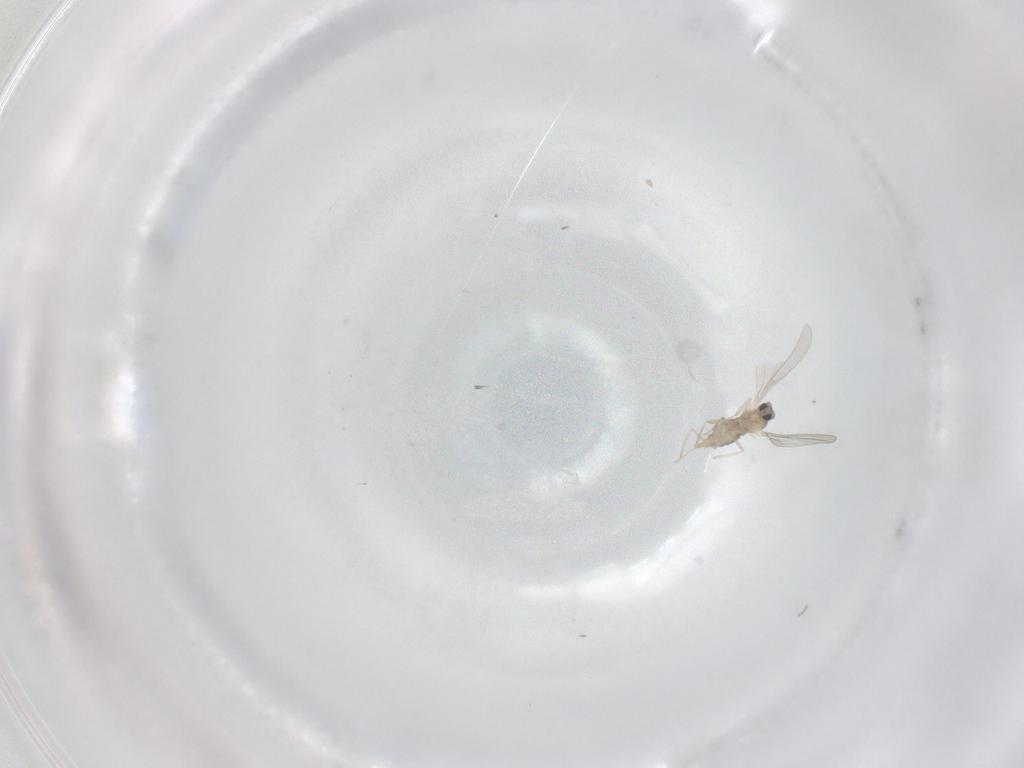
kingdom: Animalia
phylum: Arthropoda
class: Insecta
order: Diptera
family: Cecidomyiidae
